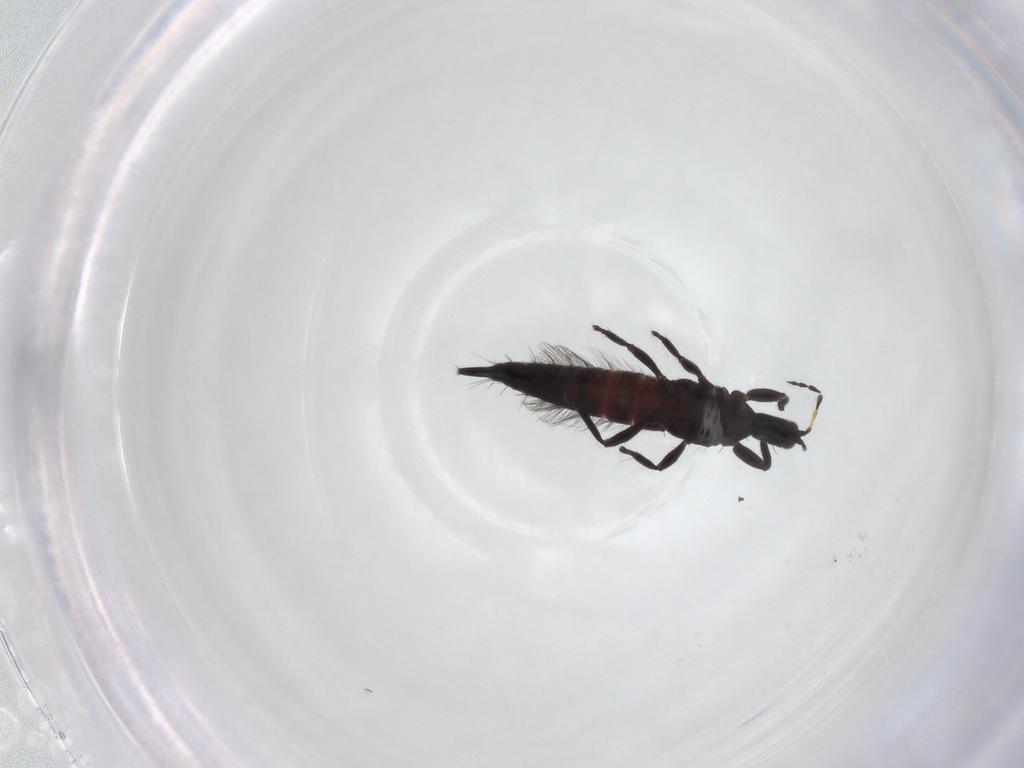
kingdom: Animalia
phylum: Arthropoda
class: Insecta
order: Thysanoptera
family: Phlaeothripidae
